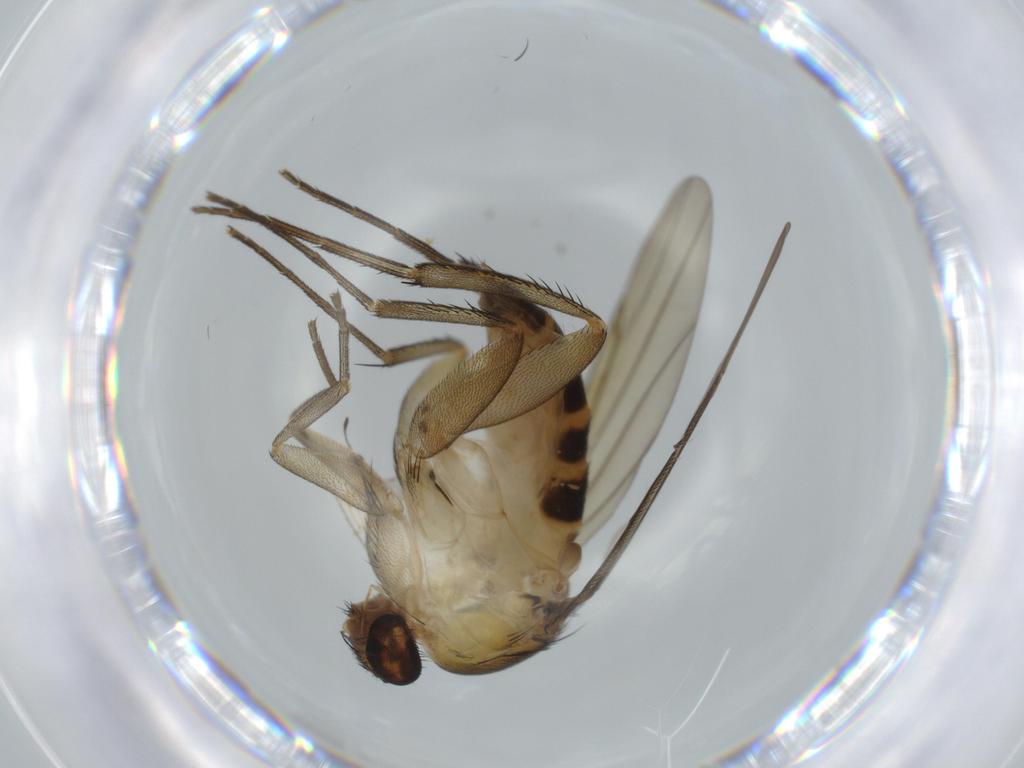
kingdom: Animalia
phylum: Arthropoda
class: Insecta
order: Diptera
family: Phoridae
